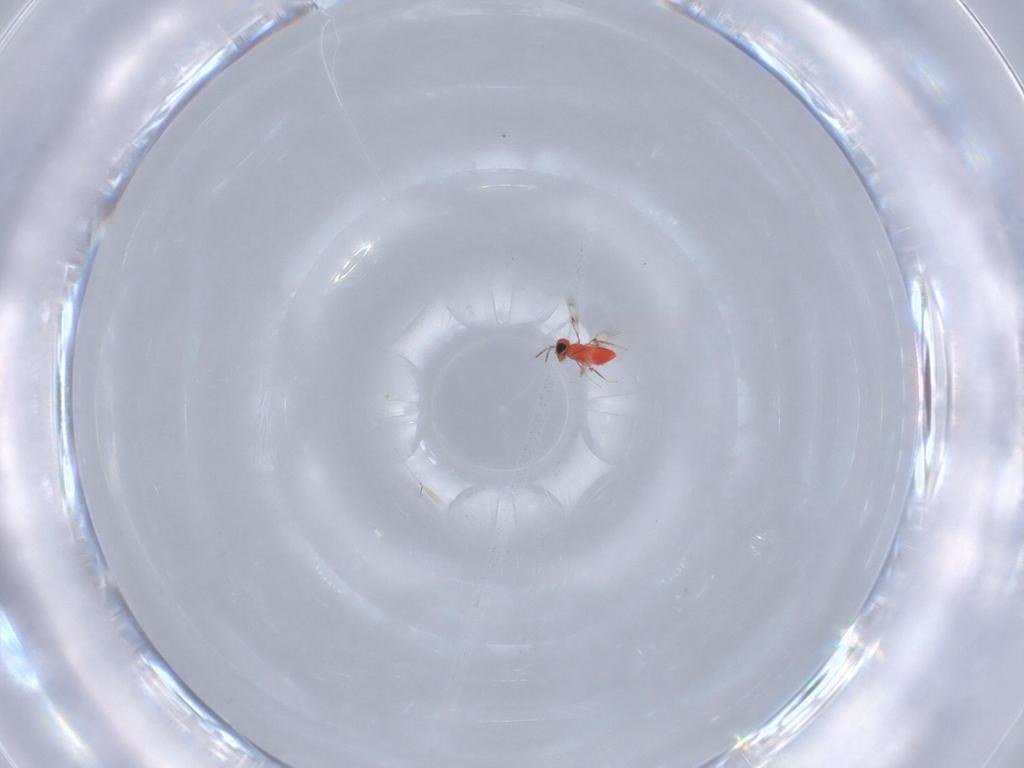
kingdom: Animalia
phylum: Arthropoda
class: Insecta
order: Hymenoptera
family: Trichogrammatidae
